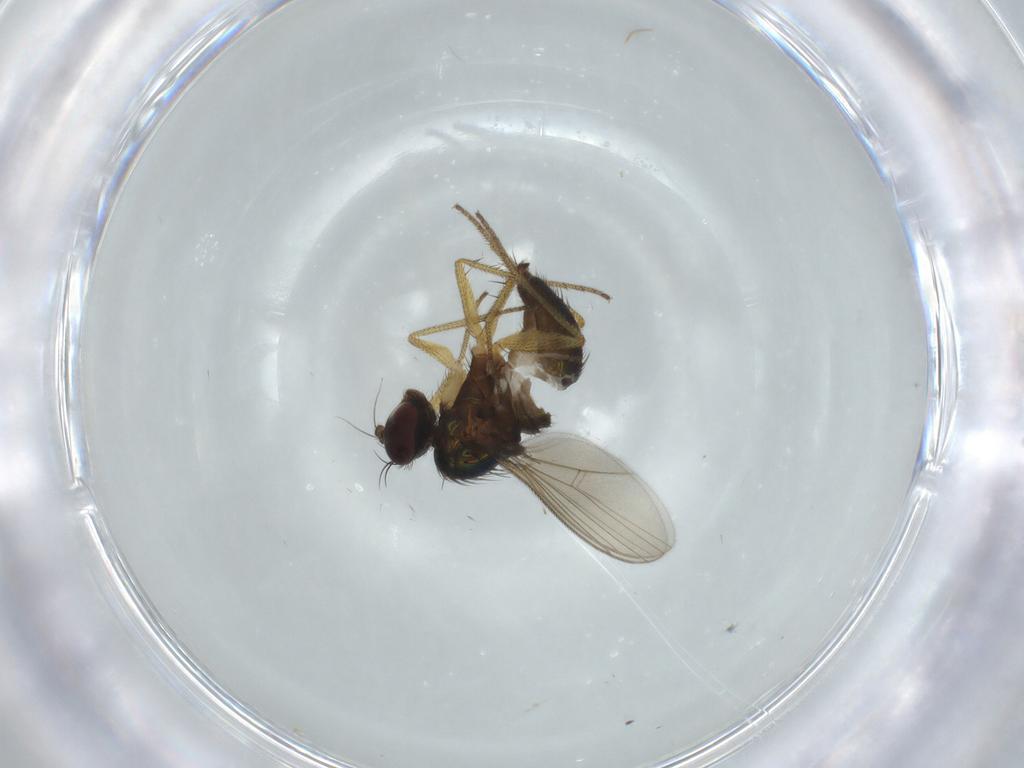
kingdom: Animalia
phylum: Arthropoda
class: Insecta
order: Diptera
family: Dolichopodidae
